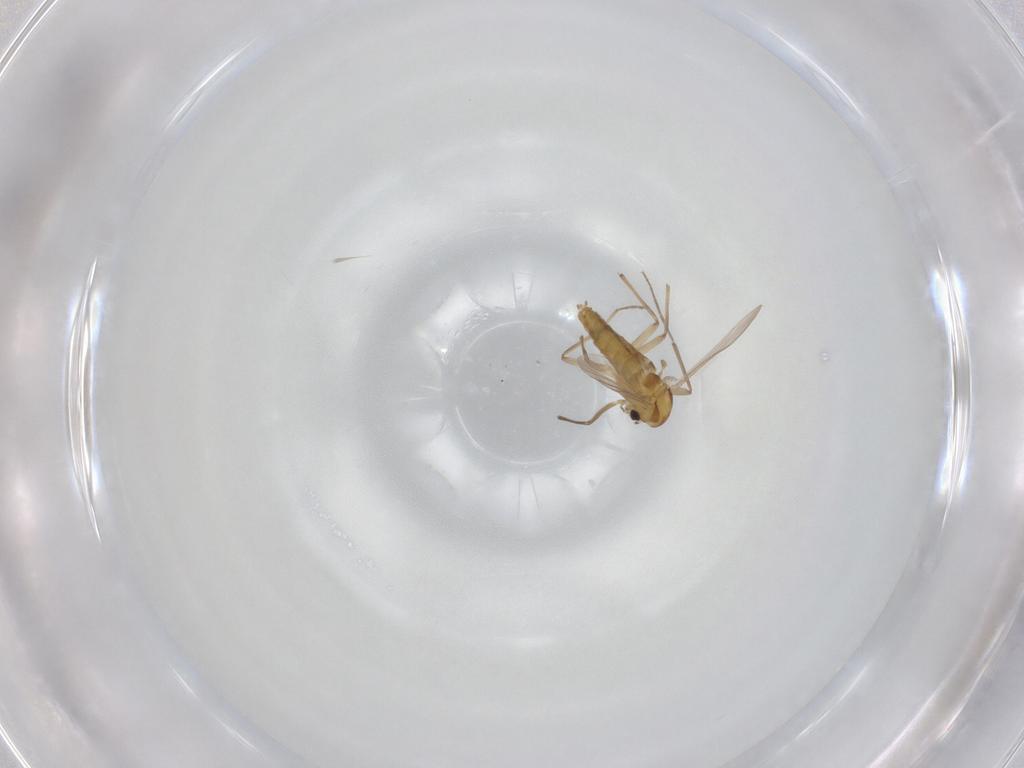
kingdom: Animalia
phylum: Arthropoda
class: Insecta
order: Diptera
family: Chironomidae
